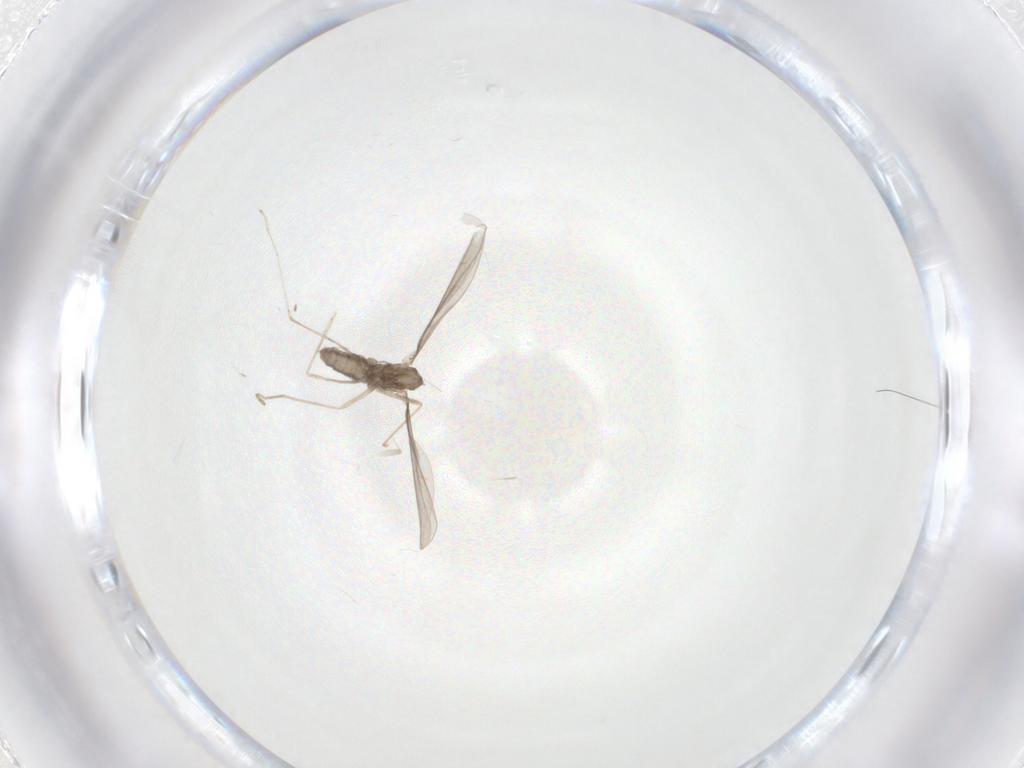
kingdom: Animalia
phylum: Arthropoda
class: Insecta
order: Diptera
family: Cecidomyiidae
